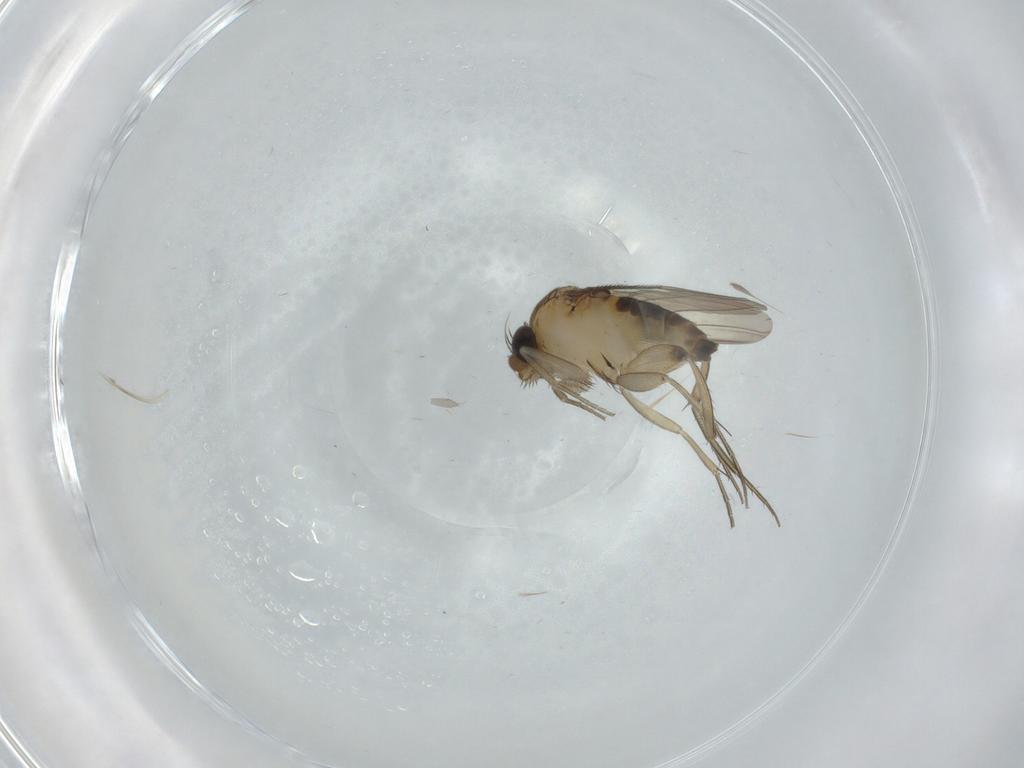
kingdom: Animalia
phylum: Arthropoda
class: Insecta
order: Diptera
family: Phoridae
